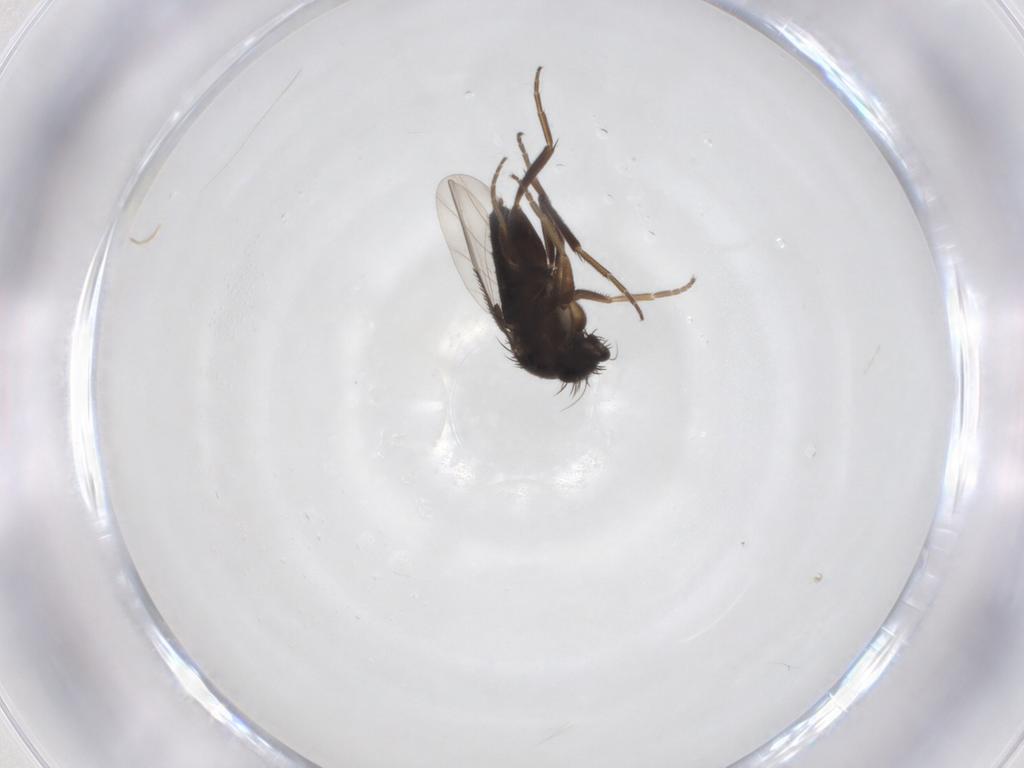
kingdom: Animalia
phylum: Arthropoda
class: Insecta
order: Diptera
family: Phoridae
